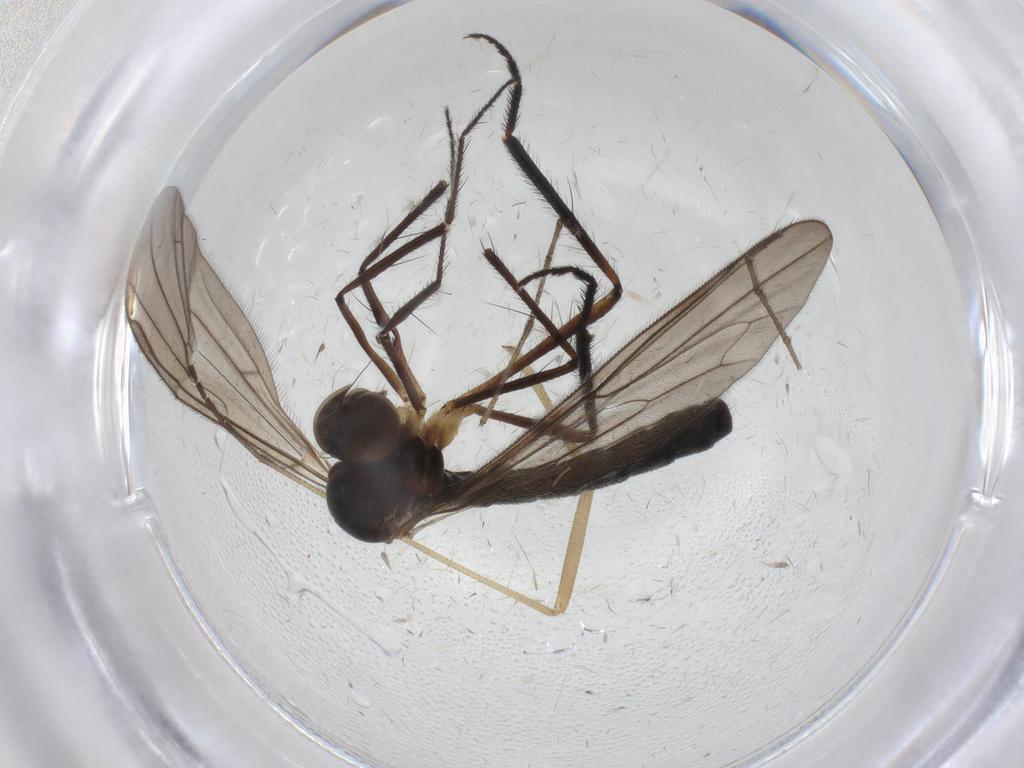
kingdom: Animalia
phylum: Arthropoda
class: Insecta
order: Diptera
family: Hybotidae
